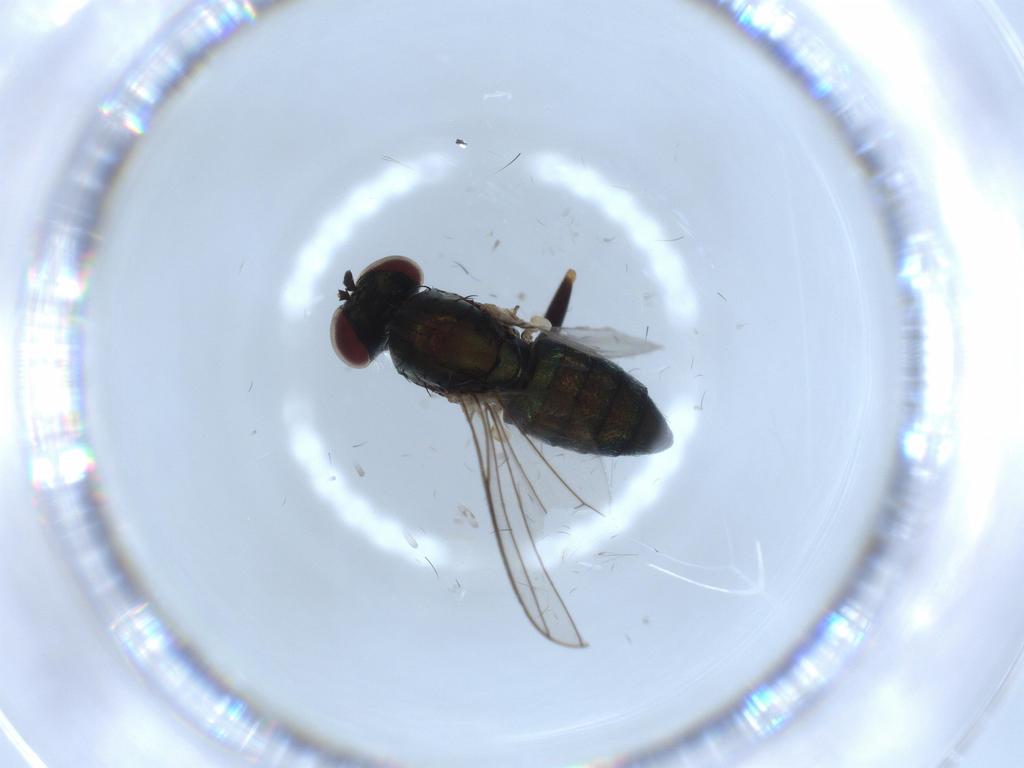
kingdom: Animalia
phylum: Arthropoda
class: Insecta
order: Diptera
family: Dolichopodidae
